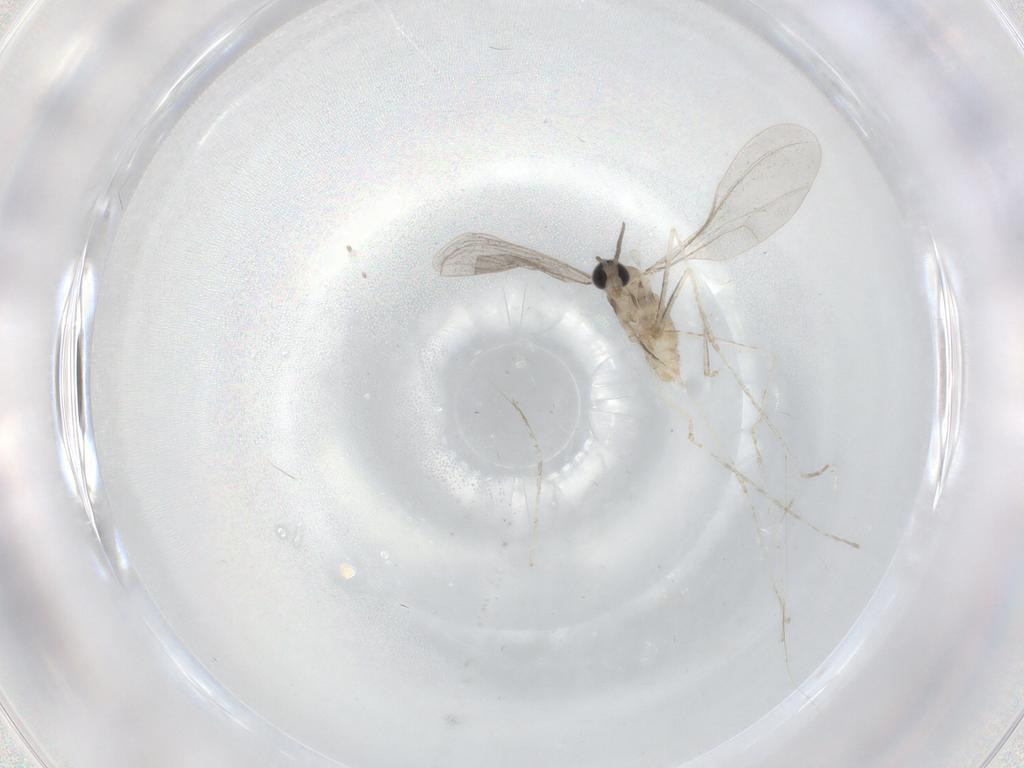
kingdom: Animalia
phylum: Arthropoda
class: Insecta
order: Diptera
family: Cecidomyiidae
